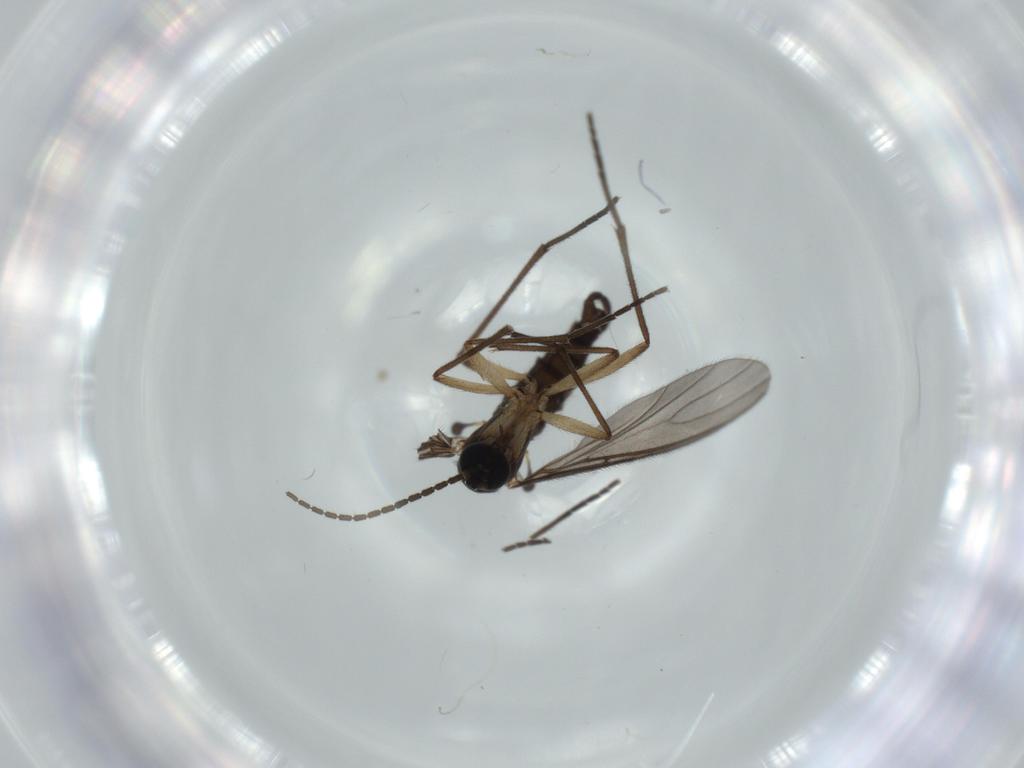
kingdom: Animalia
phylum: Arthropoda
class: Insecta
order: Diptera
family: Sciaridae
